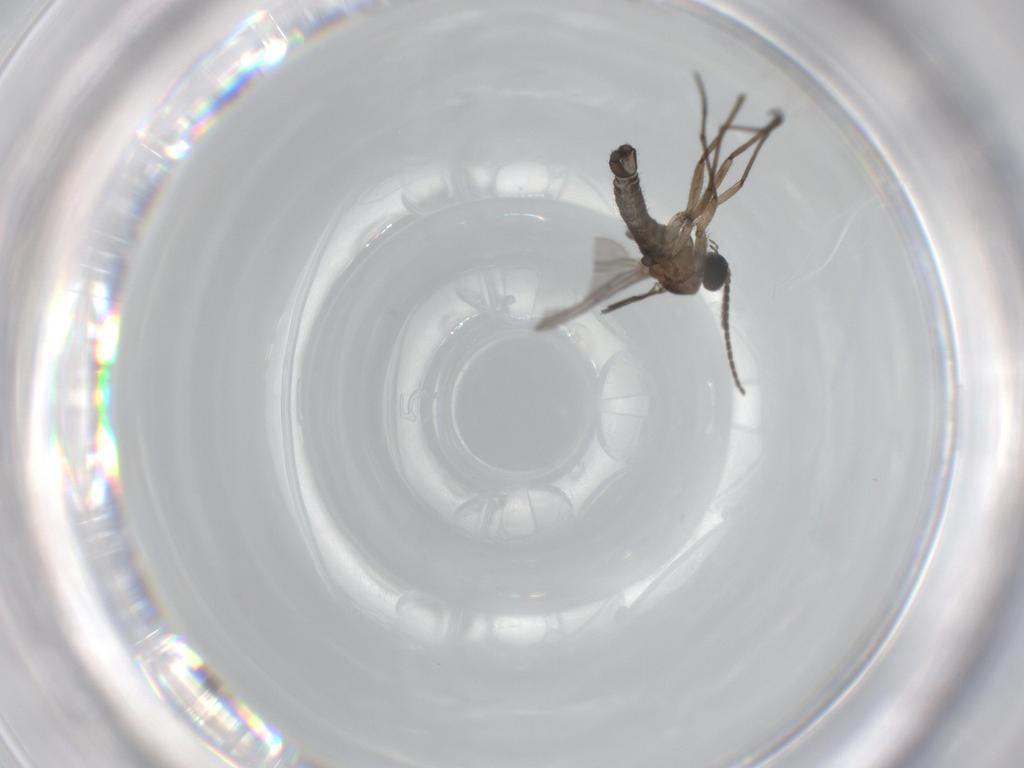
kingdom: Animalia
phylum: Arthropoda
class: Insecta
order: Diptera
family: Sciaridae
